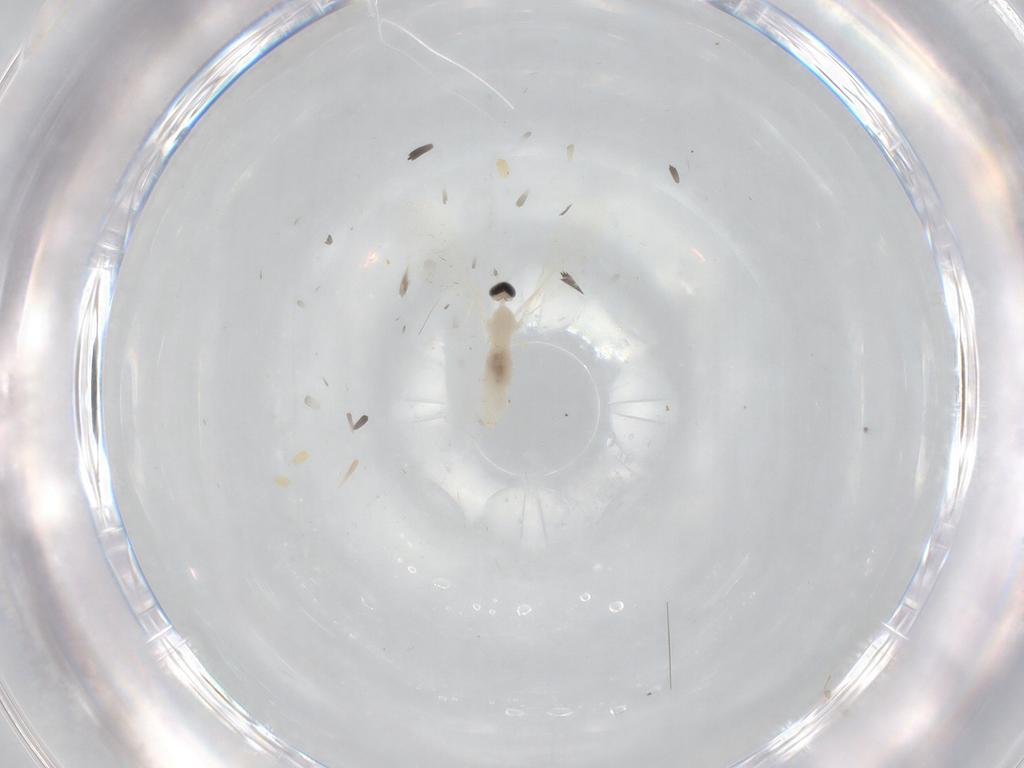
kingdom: Animalia
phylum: Arthropoda
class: Insecta
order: Diptera
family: Cecidomyiidae
